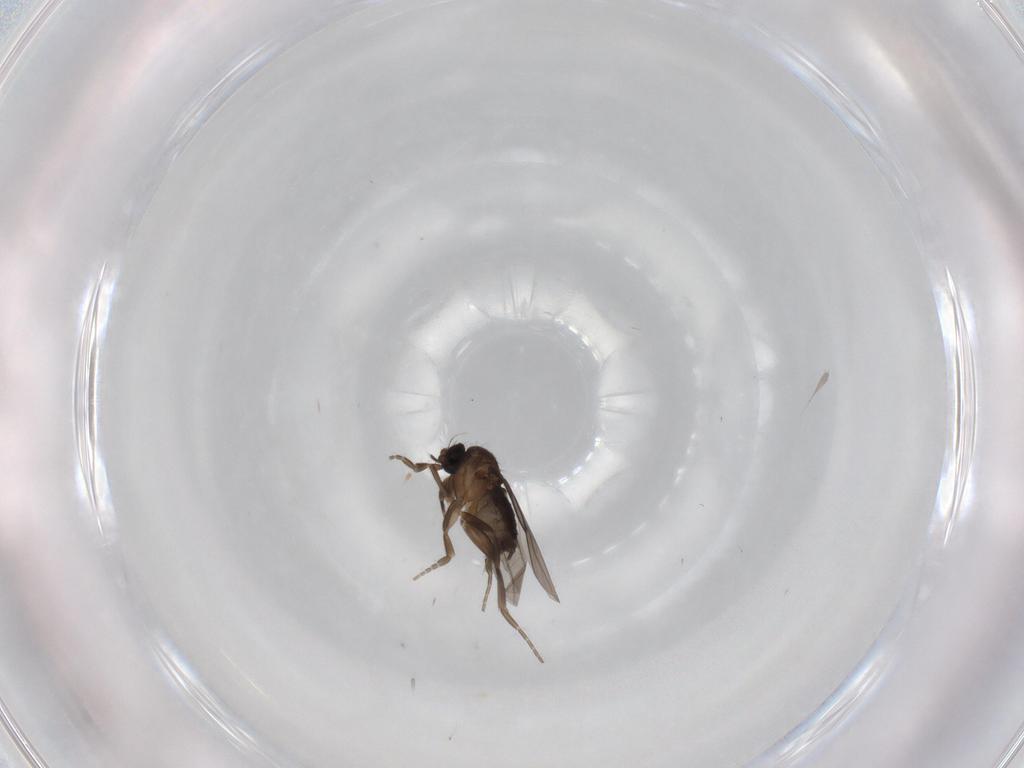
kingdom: Animalia
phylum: Arthropoda
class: Insecta
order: Diptera
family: Phoridae
